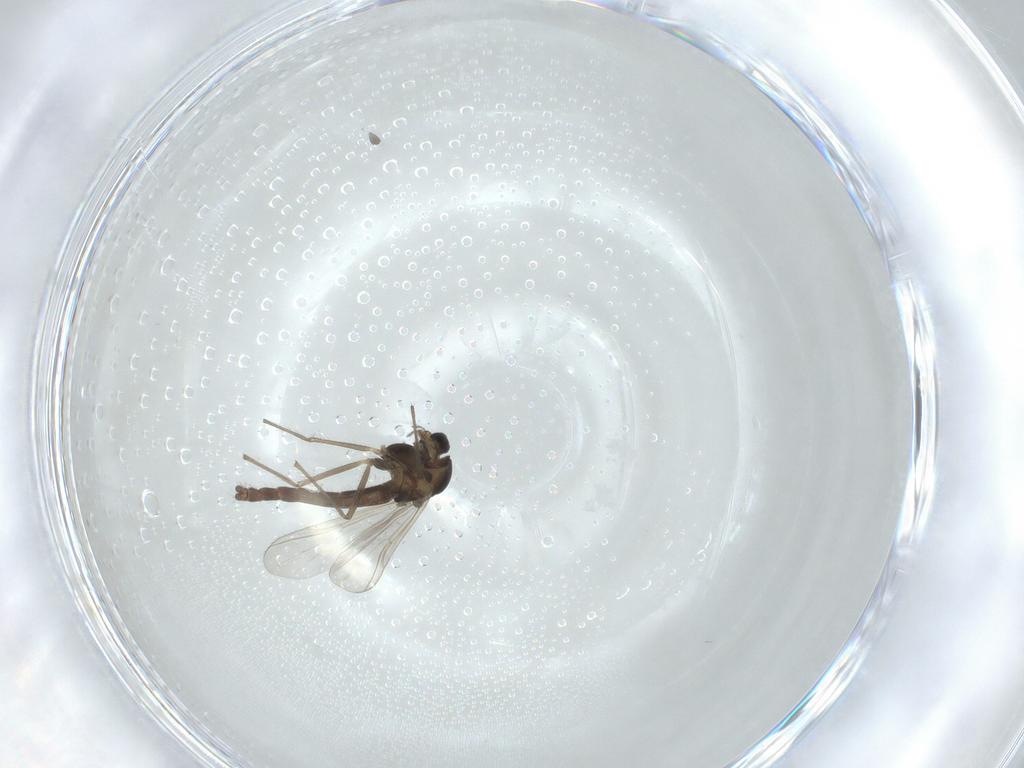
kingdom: Animalia
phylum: Arthropoda
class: Insecta
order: Diptera
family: Chironomidae
